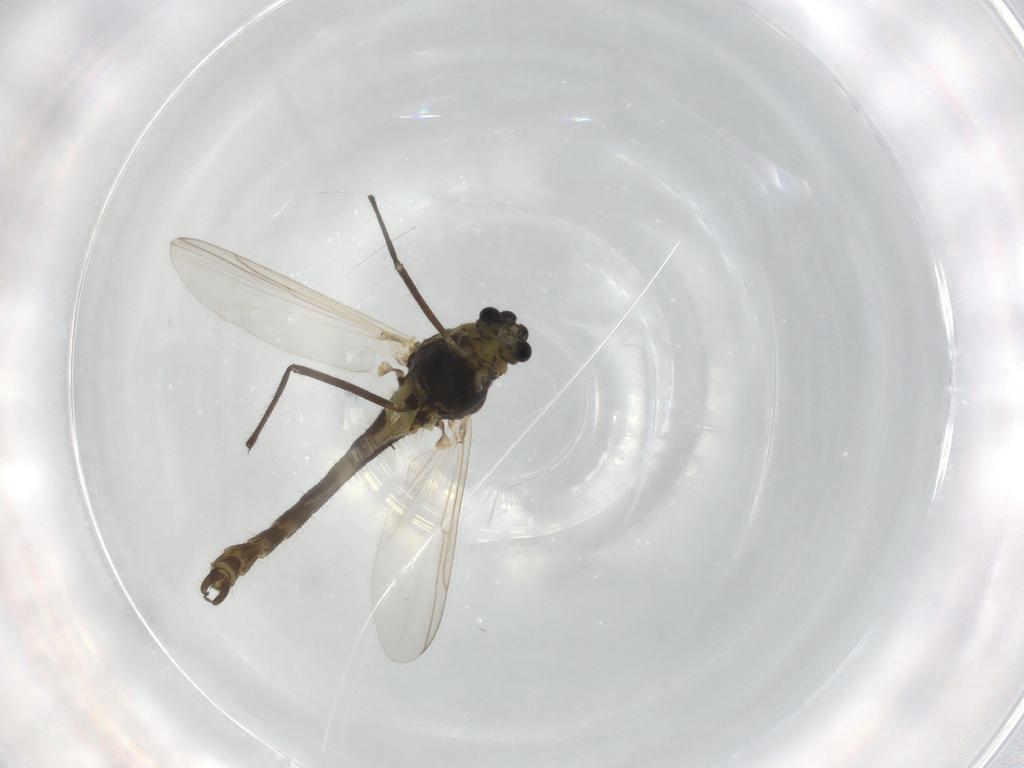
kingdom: Animalia
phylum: Arthropoda
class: Insecta
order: Diptera
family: Chironomidae
